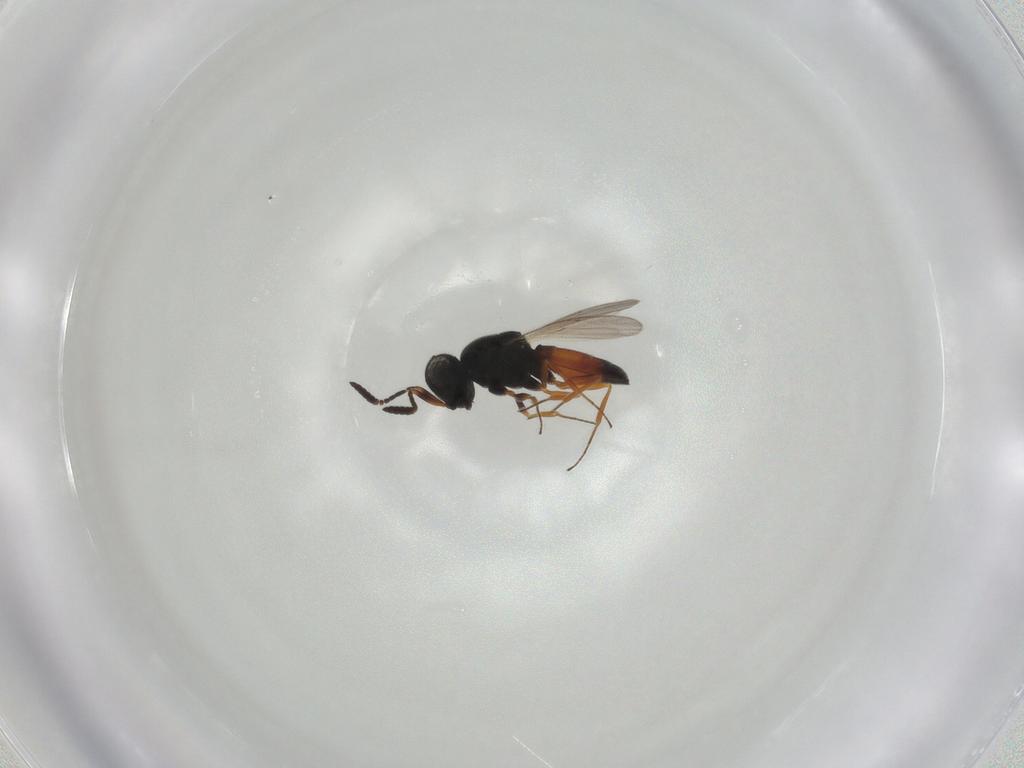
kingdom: Animalia
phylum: Arthropoda
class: Insecta
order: Hymenoptera
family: Scelionidae
